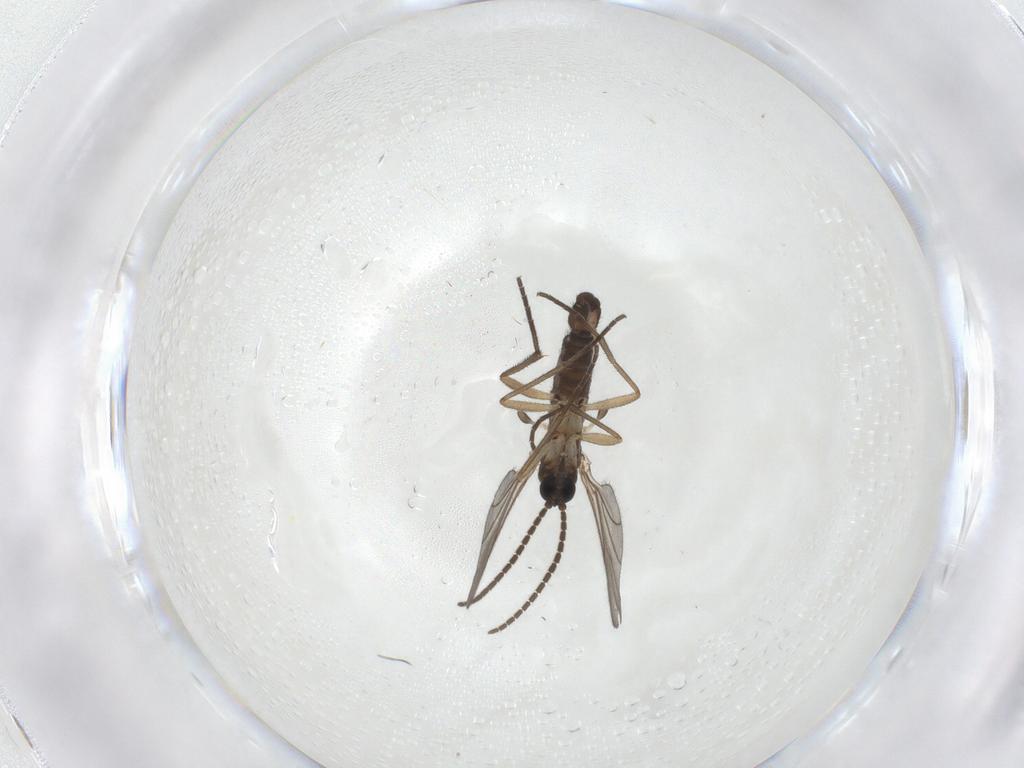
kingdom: Animalia
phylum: Arthropoda
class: Insecta
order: Diptera
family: Sciaridae
